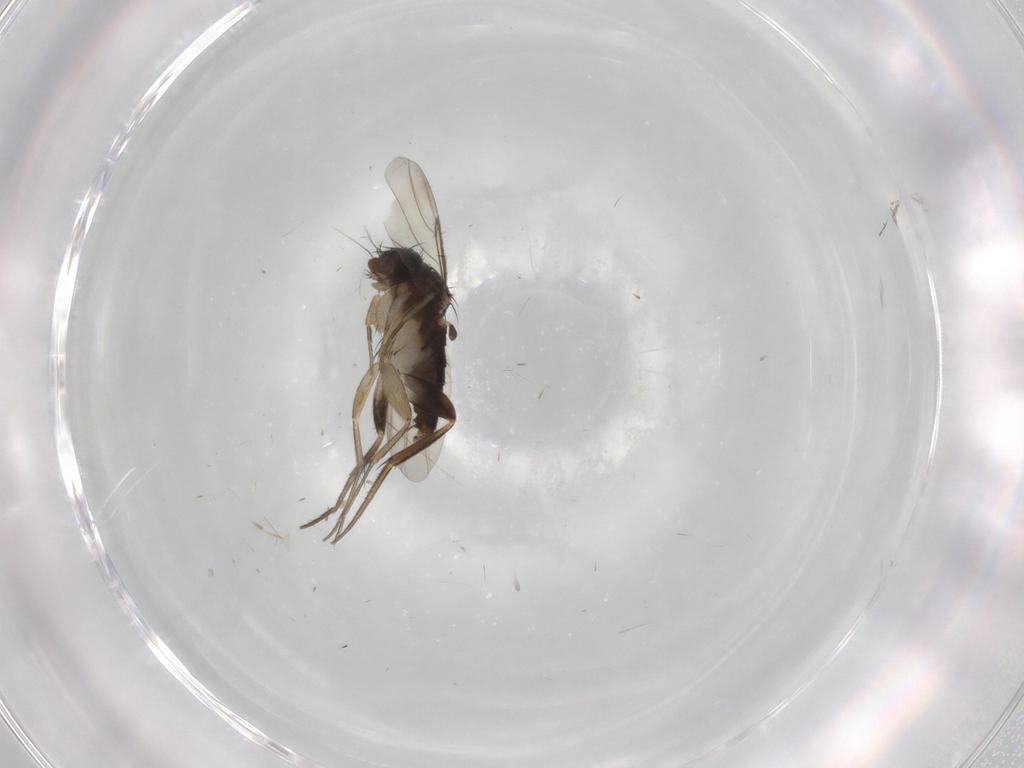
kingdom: Animalia
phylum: Arthropoda
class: Insecta
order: Diptera
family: Phoridae
